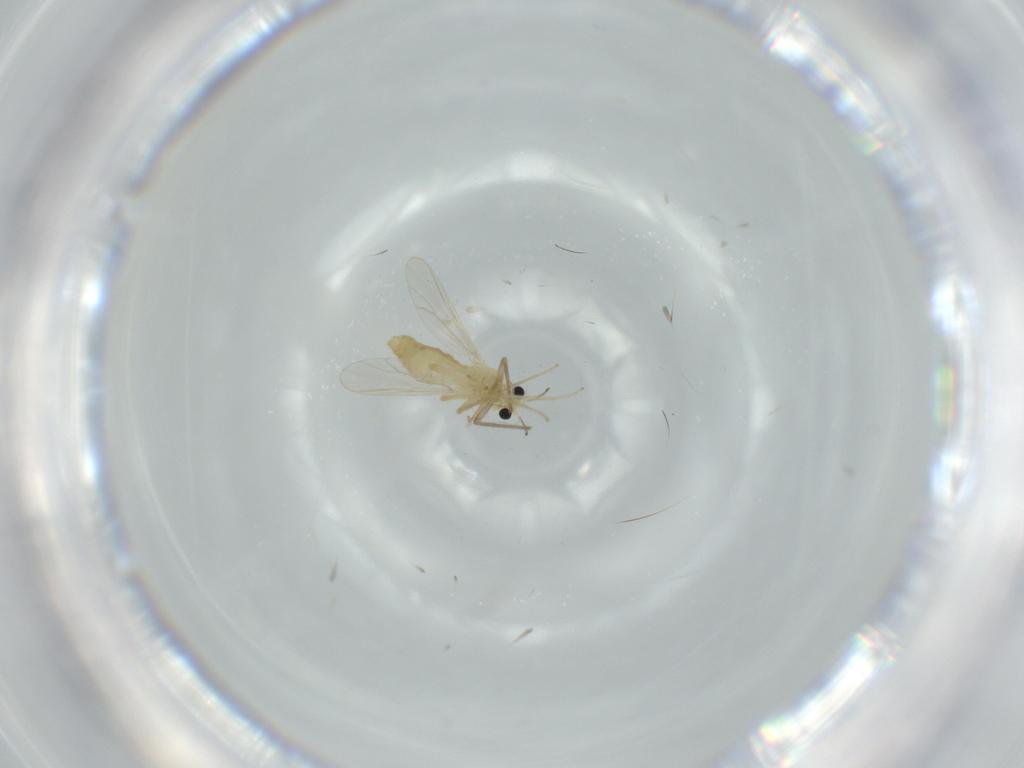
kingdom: Animalia
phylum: Arthropoda
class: Insecta
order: Diptera
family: Chironomidae
